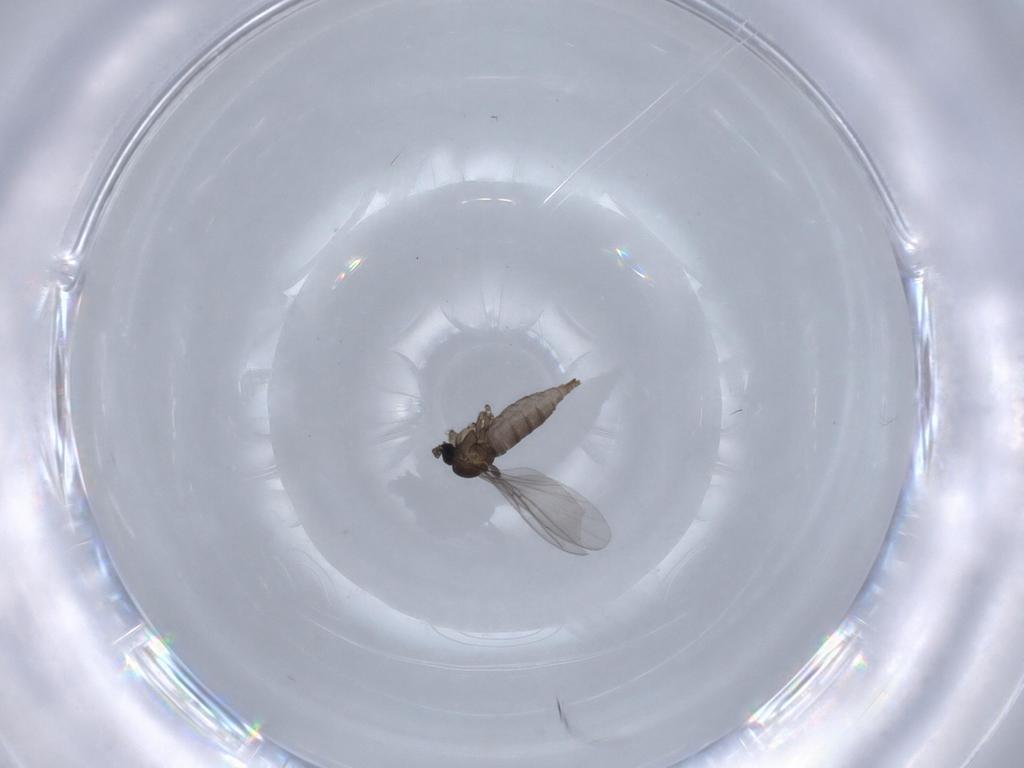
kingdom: Animalia
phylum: Arthropoda
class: Insecta
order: Diptera
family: Sciaridae
